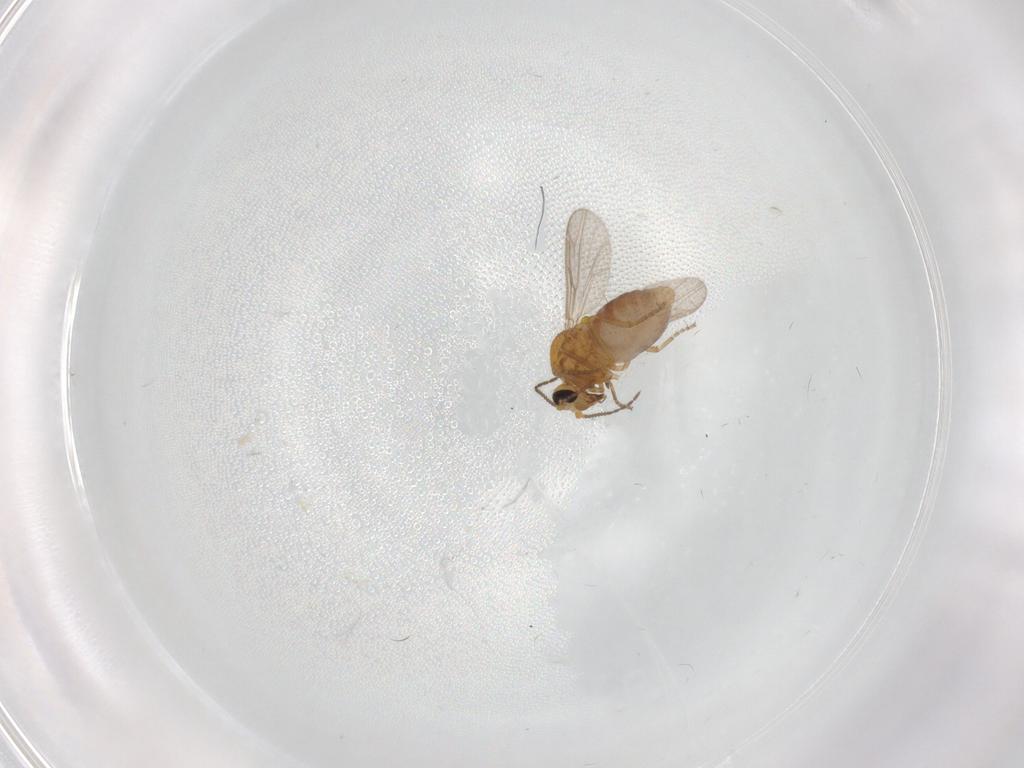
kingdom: Animalia
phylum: Arthropoda
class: Insecta
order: Diptera
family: Ceratopogonidae
